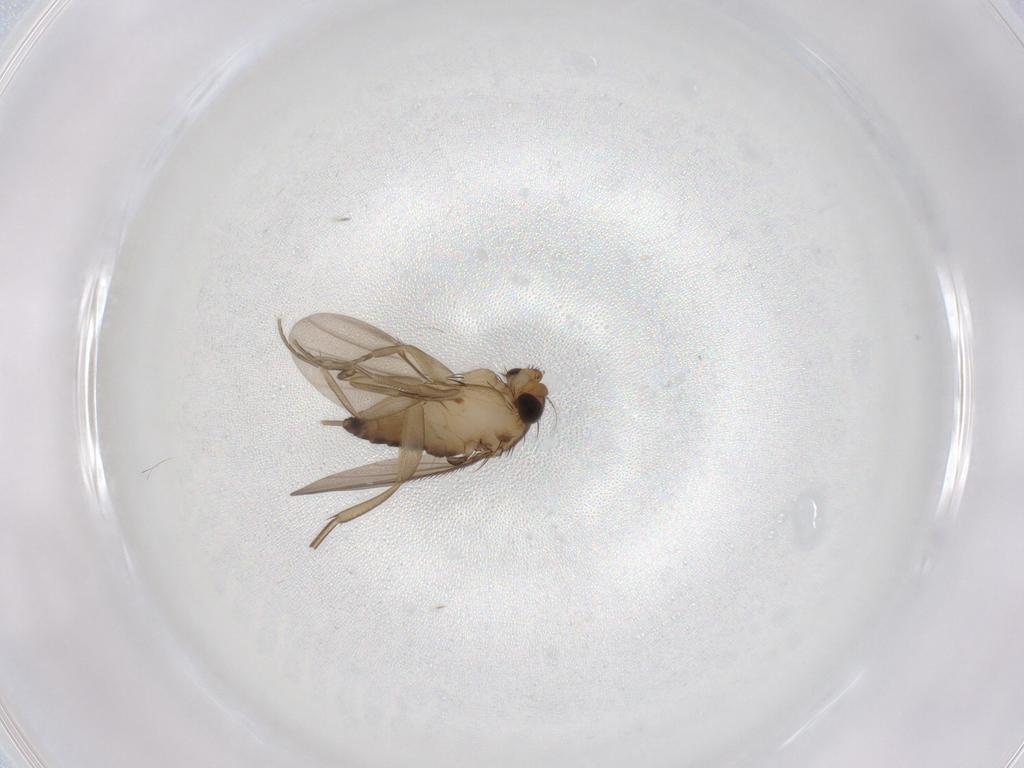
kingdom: Animalia
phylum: Arthropoda
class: Insecta
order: Diptera
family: Phoridae
